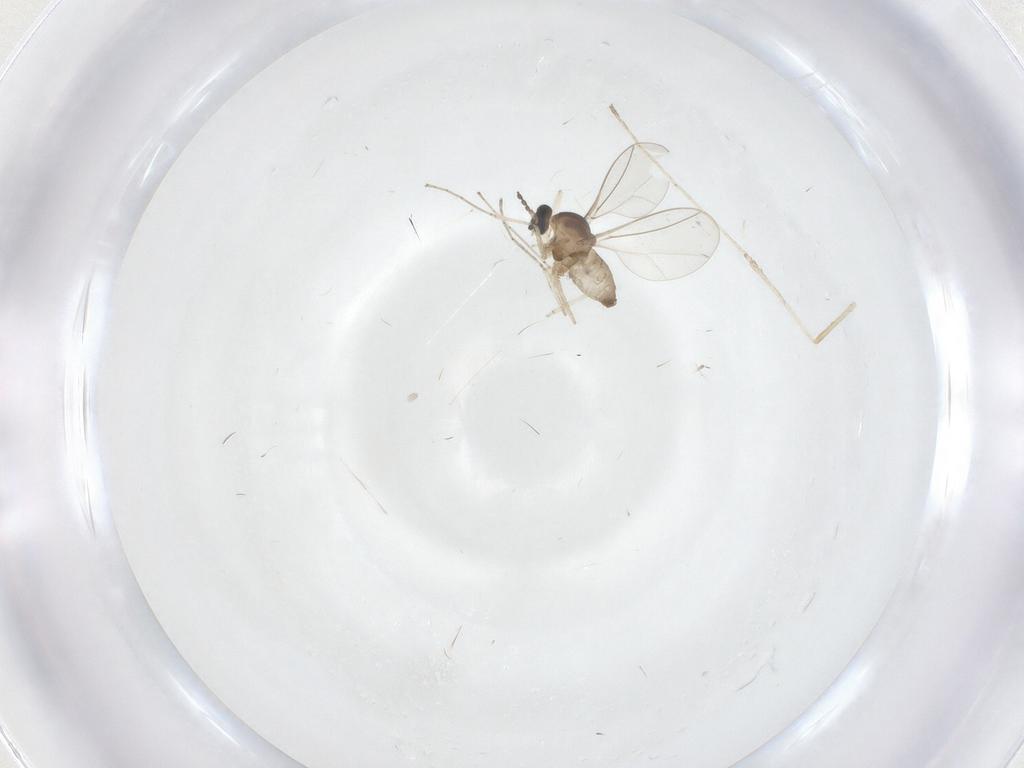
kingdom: Animalia
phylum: Arthropoda
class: Insecta
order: Diptera
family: Cecidomyiidae
